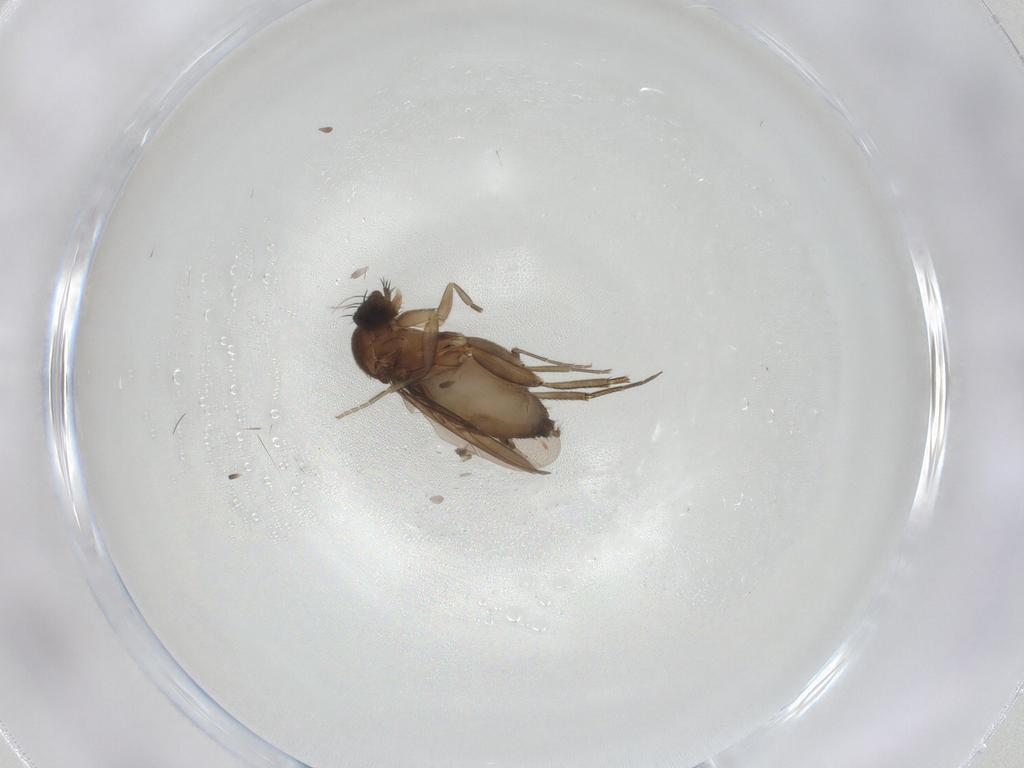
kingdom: Animalia
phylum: Arthropoda
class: Insecta
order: Diptera
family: Phoridae
